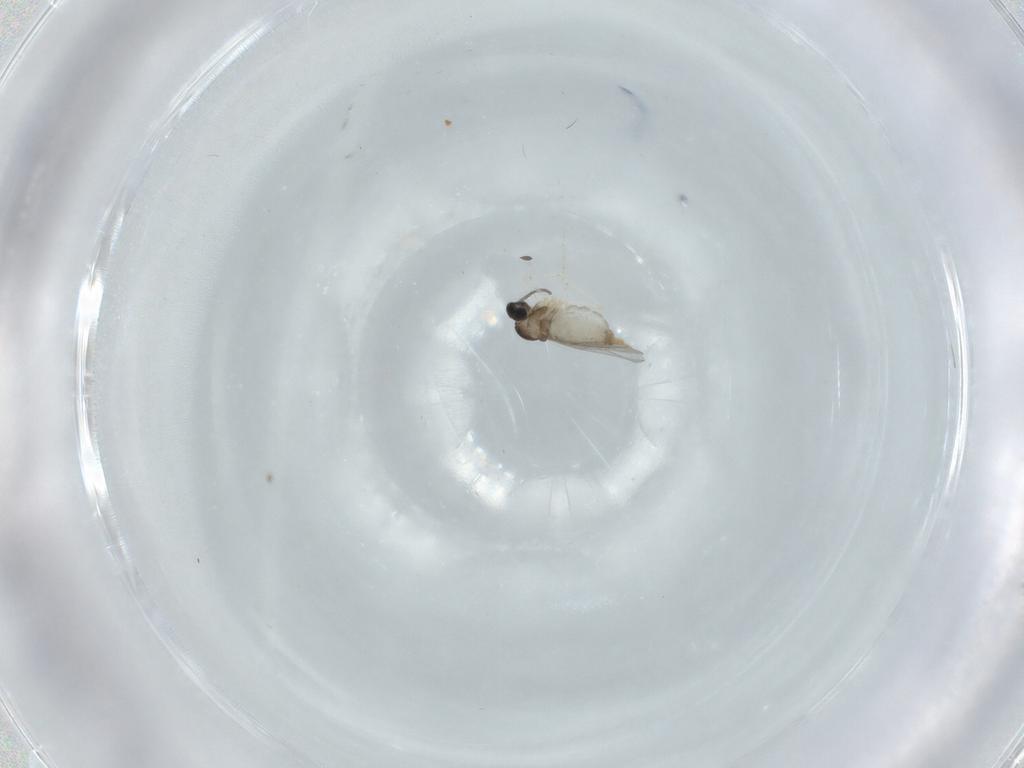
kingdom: Animalia
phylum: Arthropoda
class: Insecta
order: Diptera
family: Cecidomyiidae
